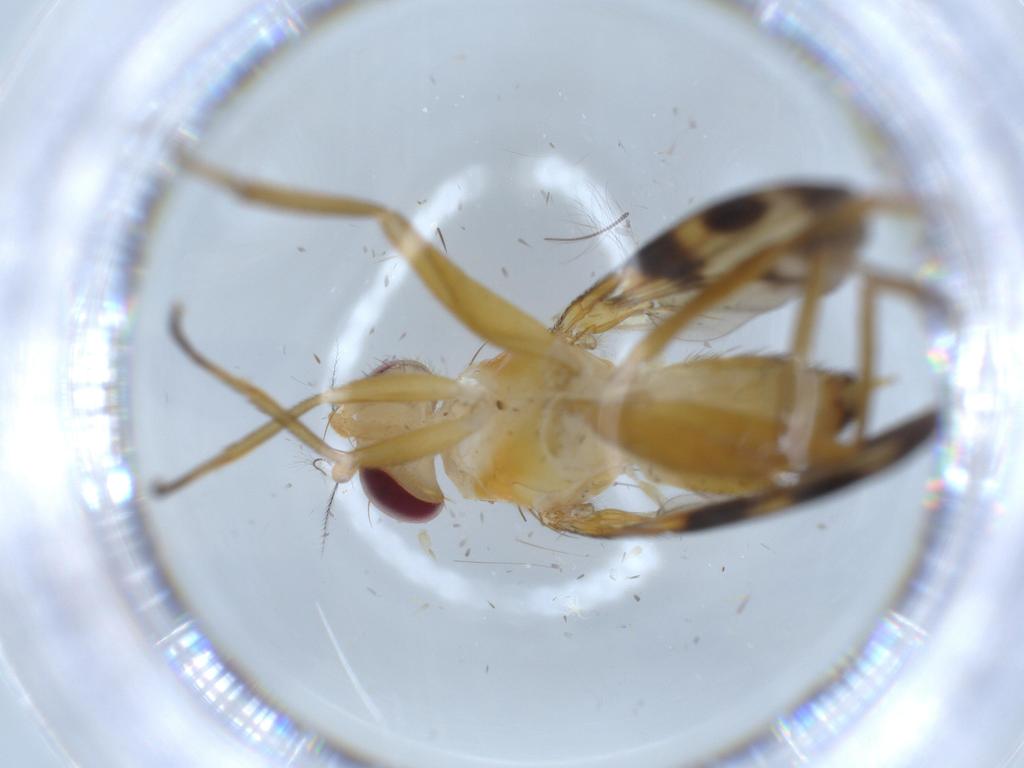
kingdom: Animalia
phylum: Arthropoda
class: Insecta
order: Diptera
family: Clusiidae
